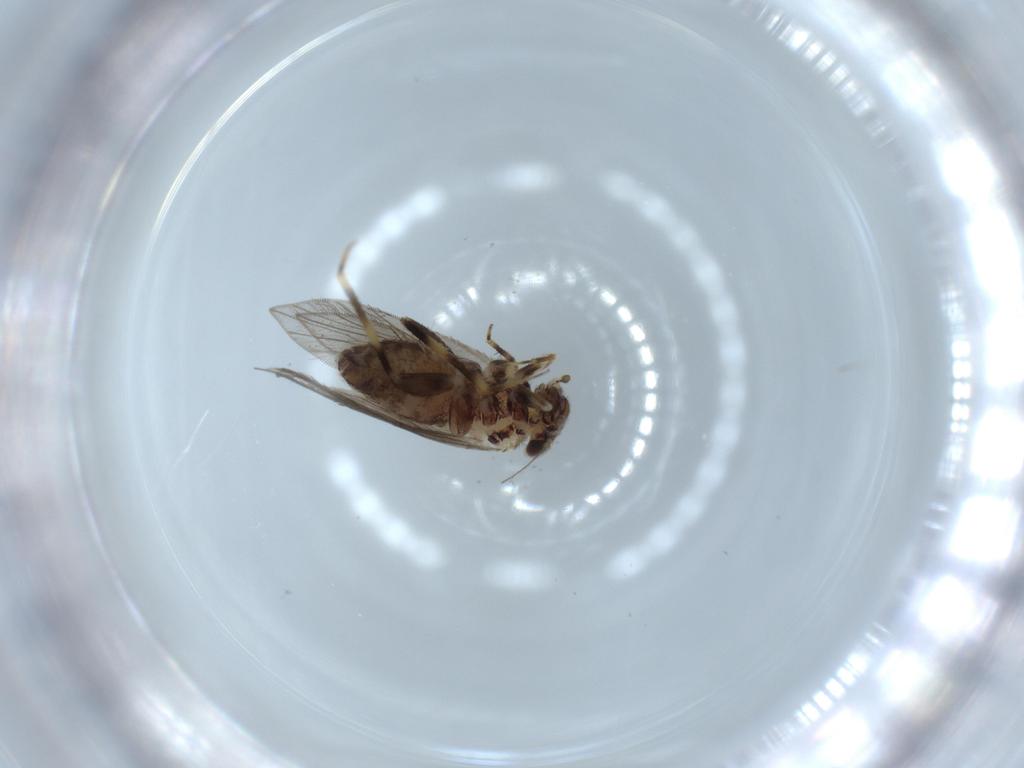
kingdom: Animalia
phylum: Arthropoda
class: Insecta
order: Psocodea
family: Lepidopsocidae
